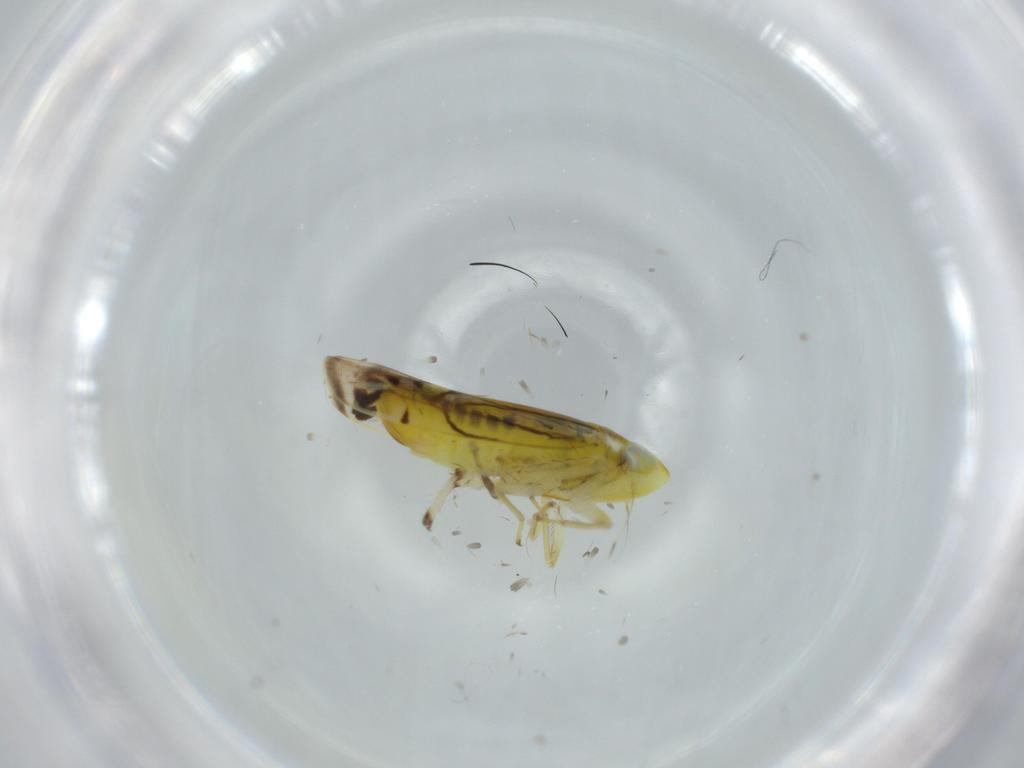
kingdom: Animalia
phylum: Arthropoda
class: Insecta
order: Hemiptera
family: Cicadellidae
